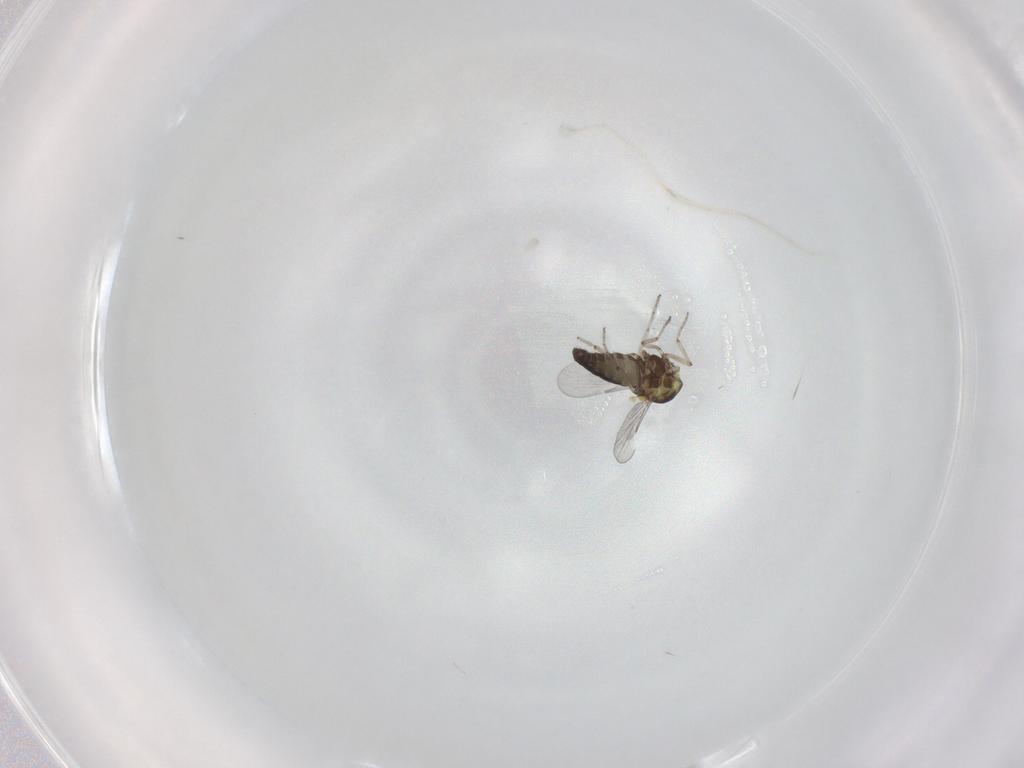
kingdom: Animalia
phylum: Arthropoda
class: Insecta
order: Diptera
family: Ceratopogonidae
